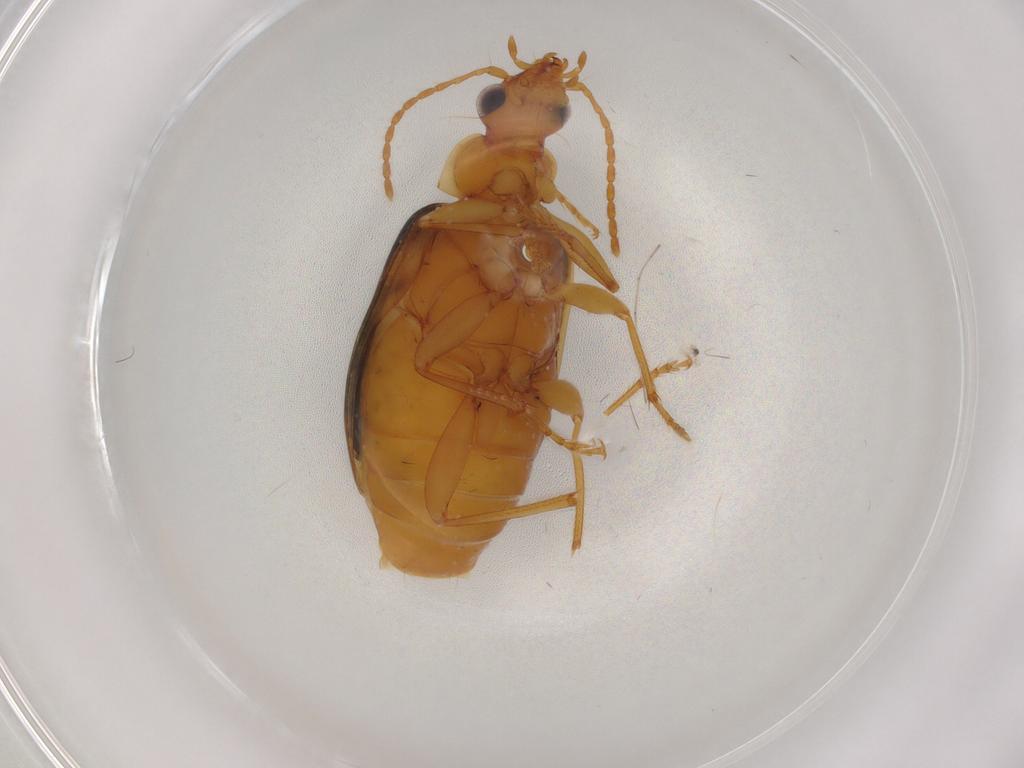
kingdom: Animalia
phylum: Arthropoda
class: Insecta
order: Coleoptera
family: Carabidae
